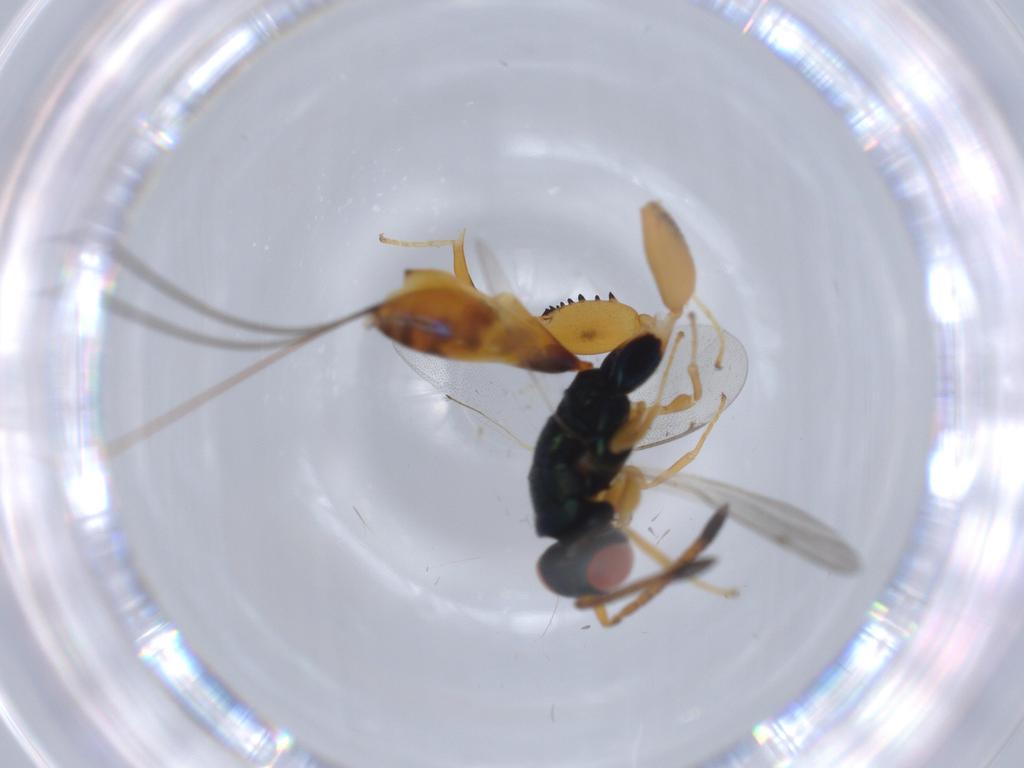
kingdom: Animalia
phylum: Arthropoda
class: Insecta
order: Hymenoptera
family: Torymidae
